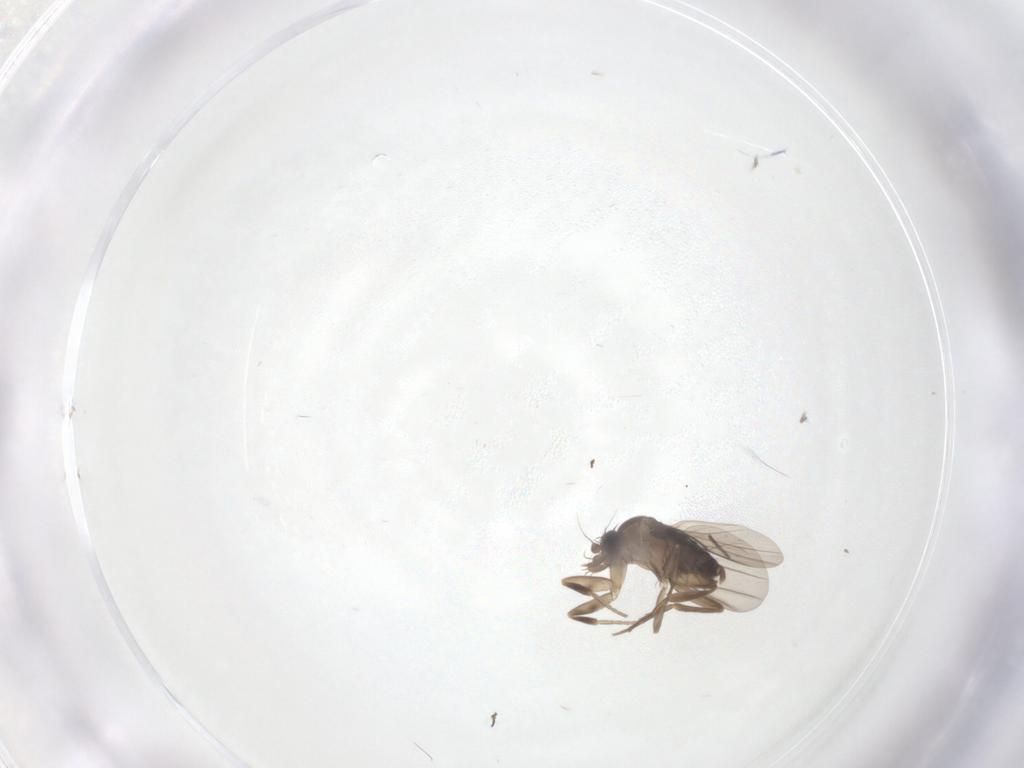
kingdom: Animalia
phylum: Arthropoda
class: Insecta
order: Diptera
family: Phoridae
